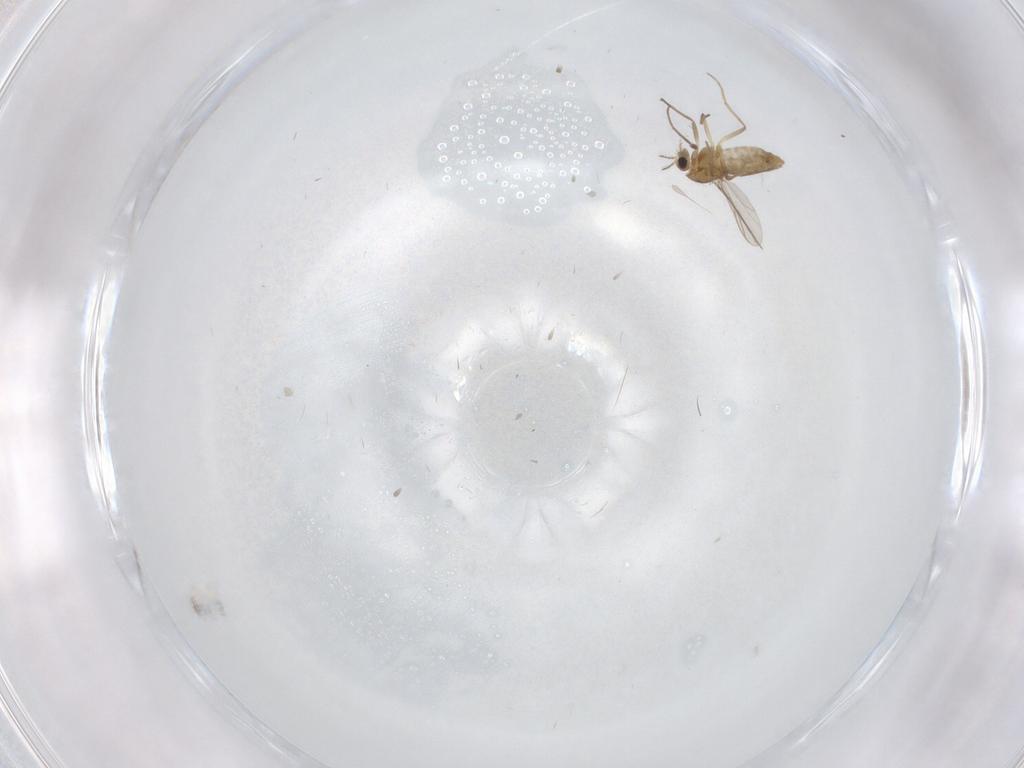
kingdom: Animalia
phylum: Arthropoda
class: Insecta
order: Diptera
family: Chironomidae
